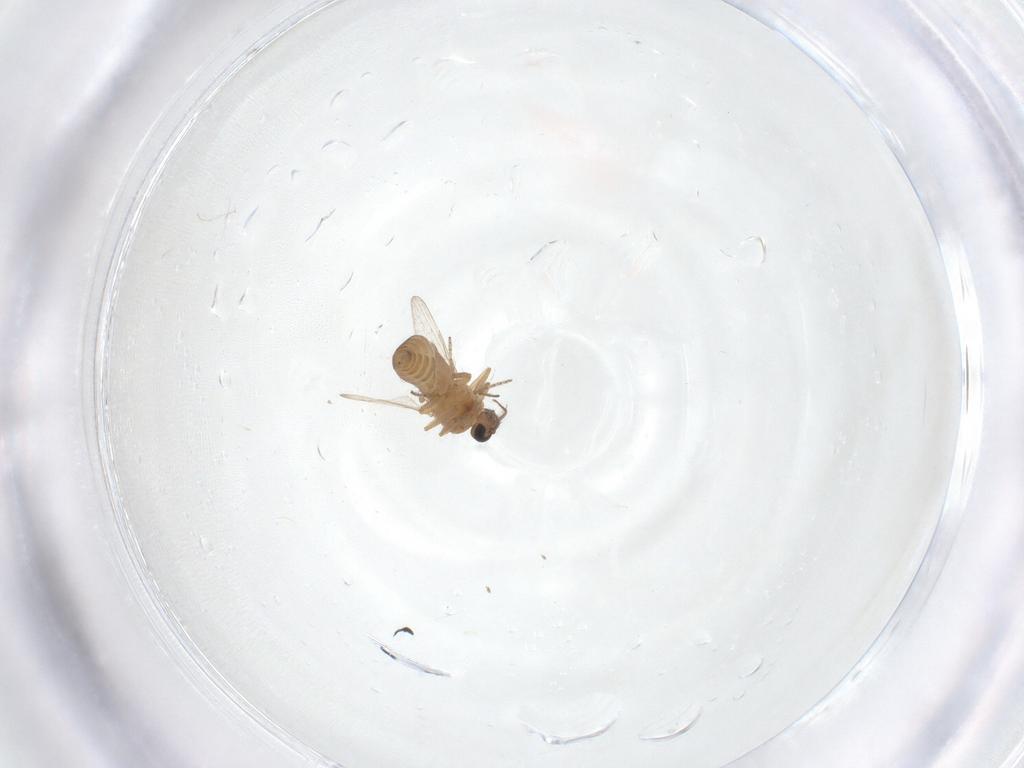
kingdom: Animalia
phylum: Arthropoda
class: Insecta
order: Diptera
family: Ceratopogonidae
